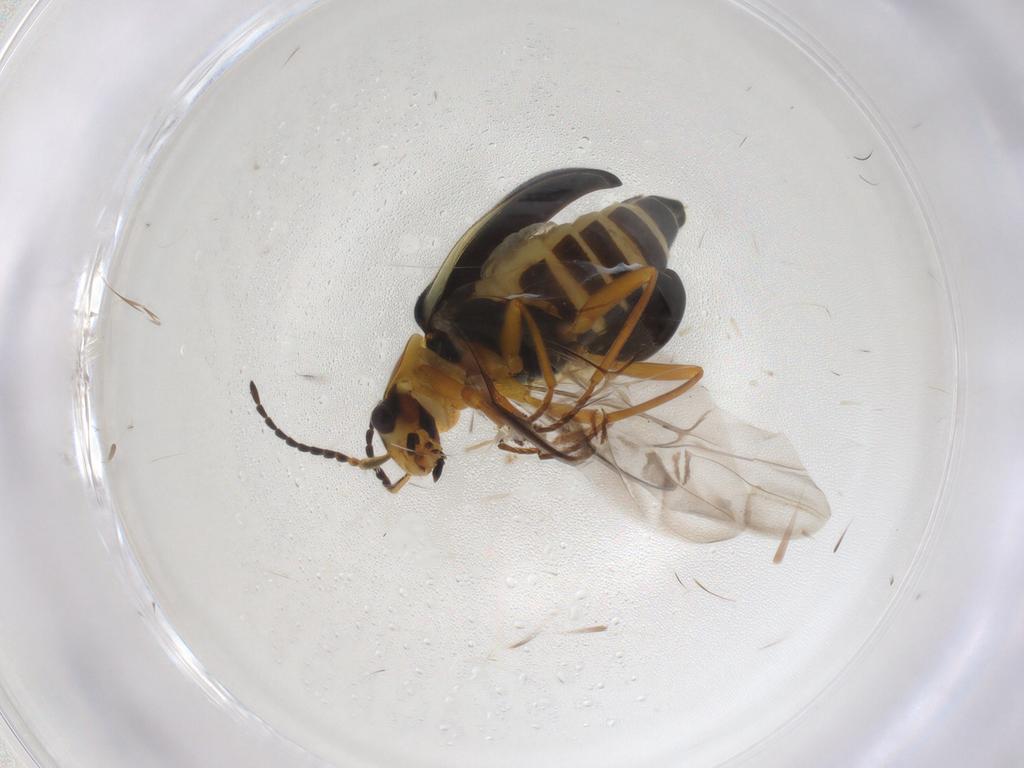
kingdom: Animalia
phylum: Arthropoda
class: Insecta
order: Coleoptera
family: Melyridae
